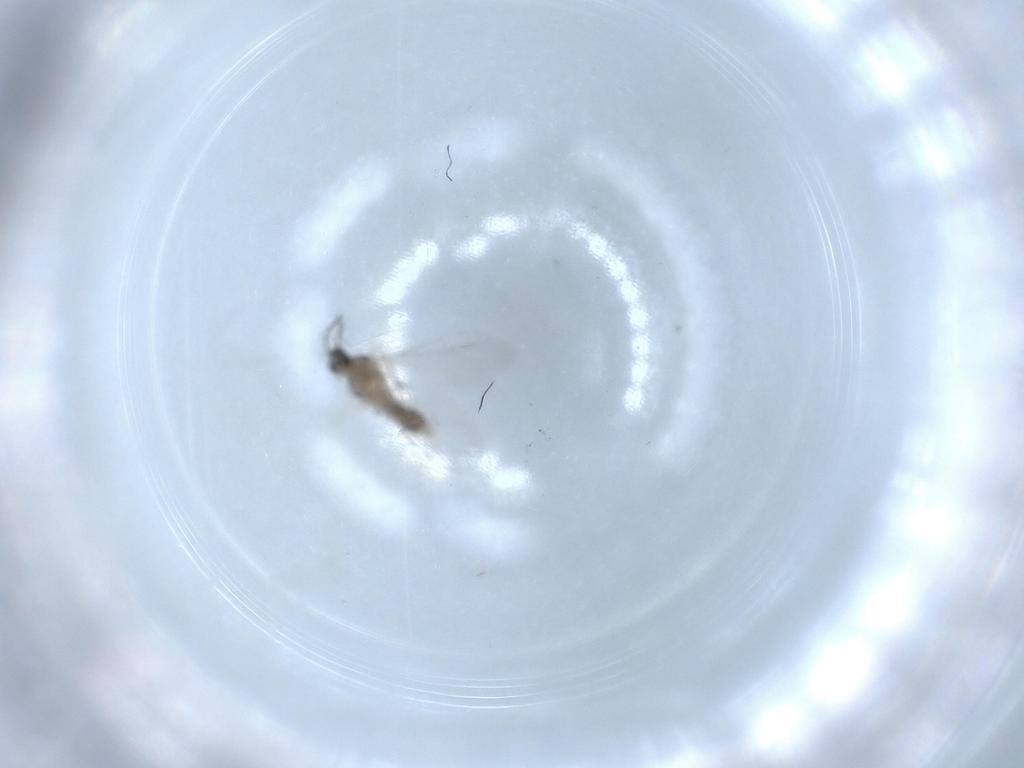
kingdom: Animalia
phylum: Arthropoda
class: Insecta
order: Diptera
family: Cecidomyiidae
